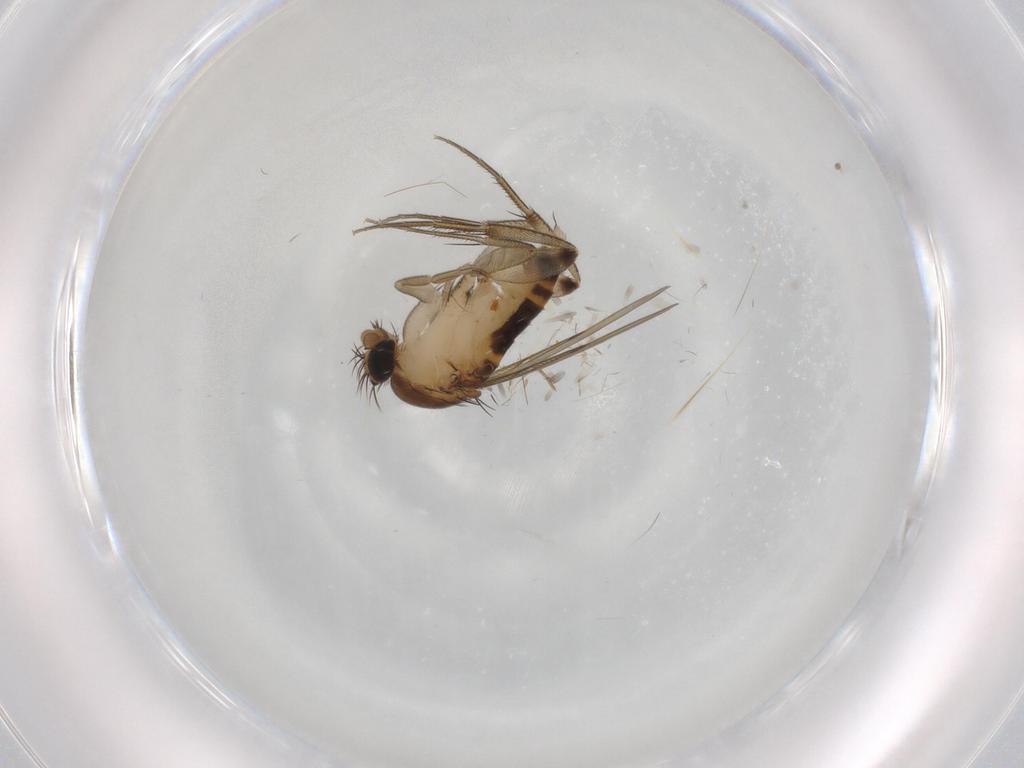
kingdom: Animalia
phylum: Arthropoda
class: Insecta
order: Diptera
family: Phoridae
